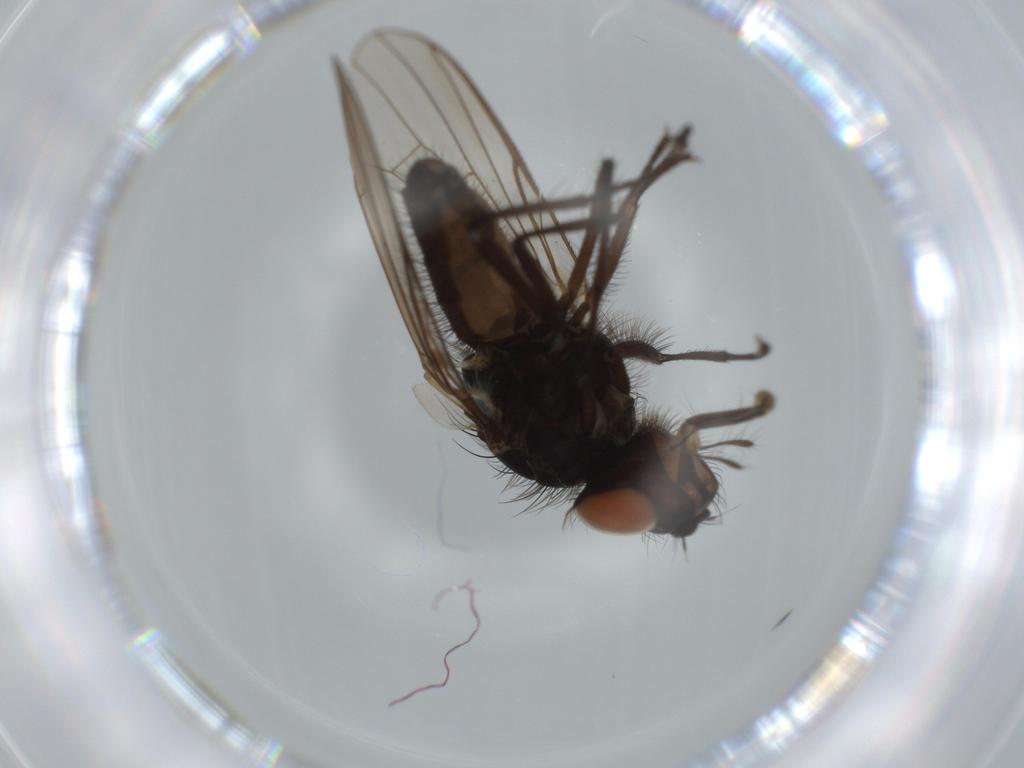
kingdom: Animalia
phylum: Arthropoda
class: Insecta
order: Diptera
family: Anthomyiidae
